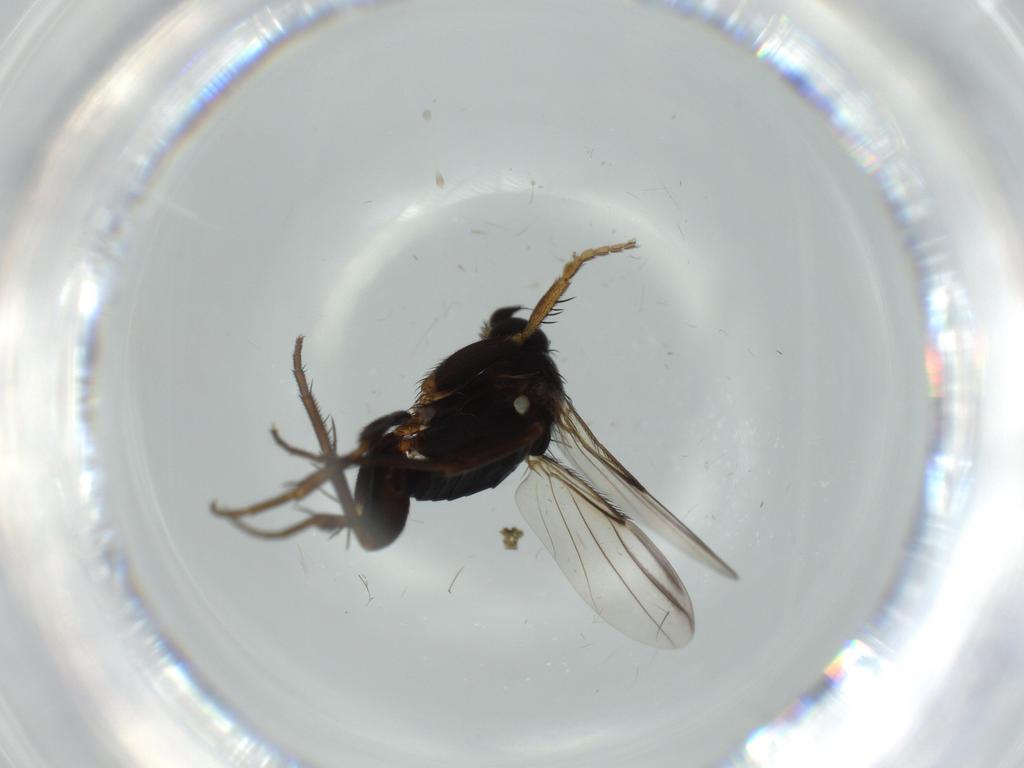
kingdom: Animalia
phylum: Arthropoda
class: Insecta
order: Diptera
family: Phoridae
